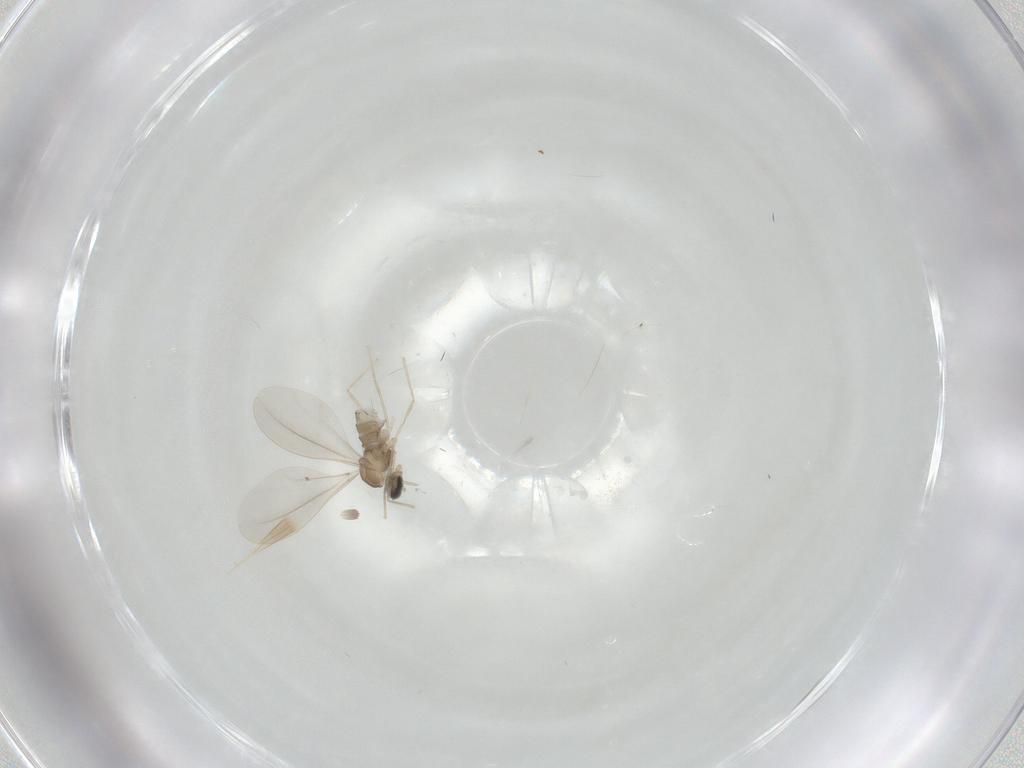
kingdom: Animalia
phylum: Arthropoda
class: Insecta
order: Diptera
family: Cecidomyiidae
